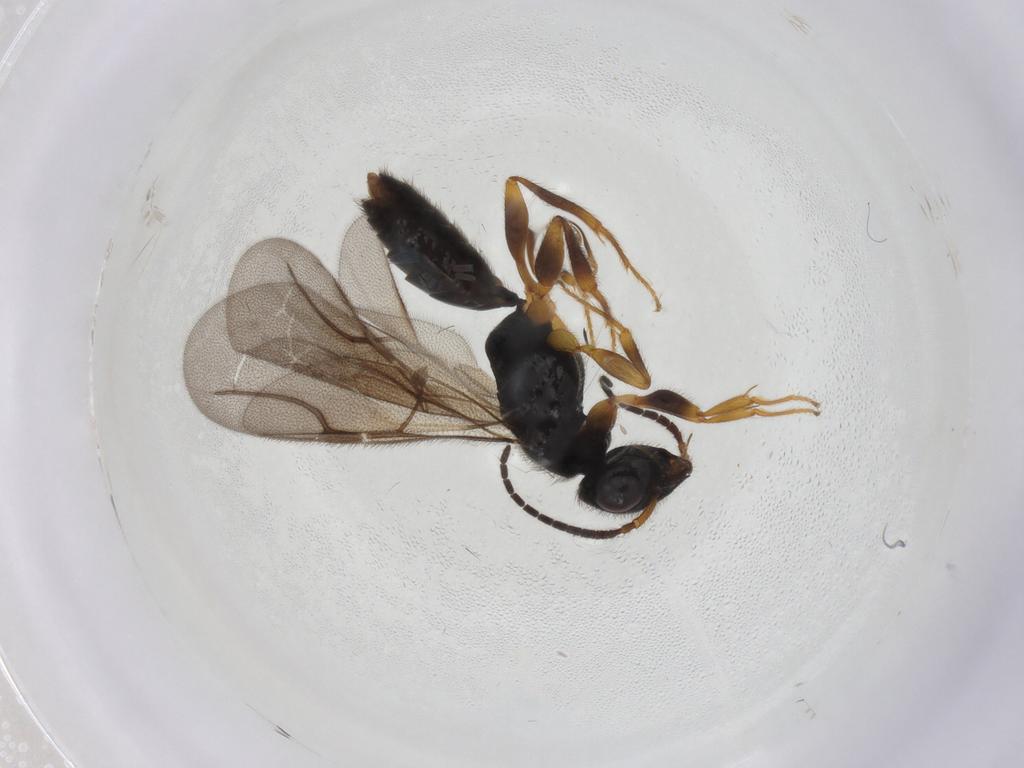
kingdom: Animalia
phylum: Arthropoda
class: Insecta
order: Hymenoptera
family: Bethylidae
